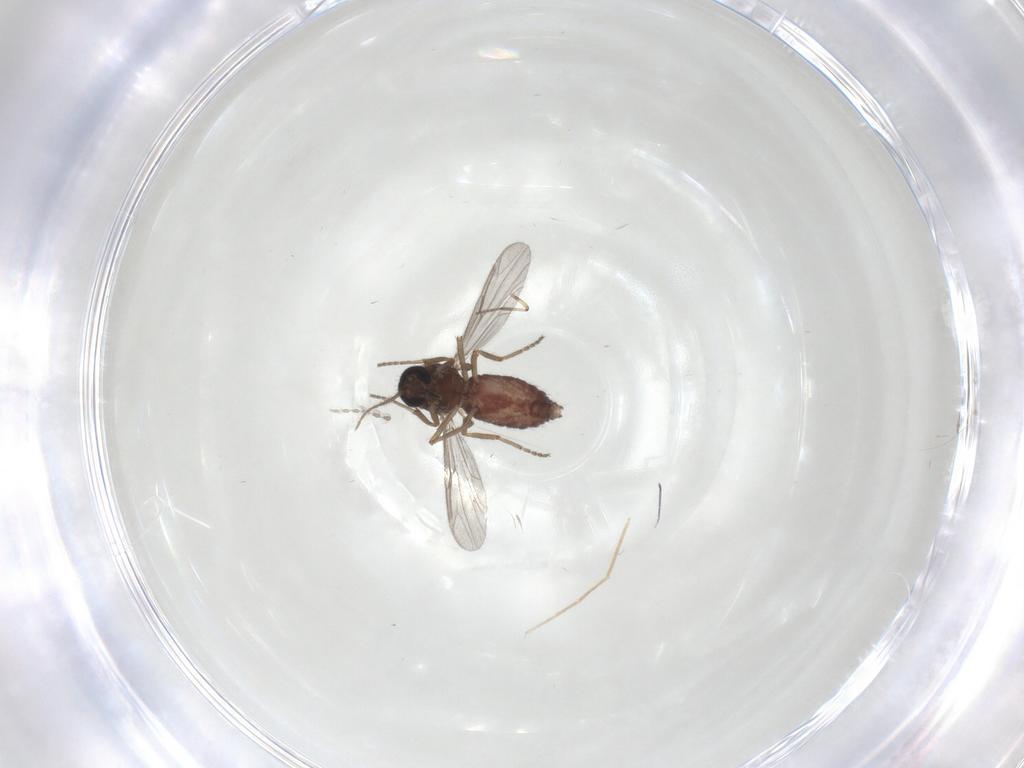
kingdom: Animalia
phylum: Arthropoda
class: Insecta
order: Diptera
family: Ceratopogonidae
